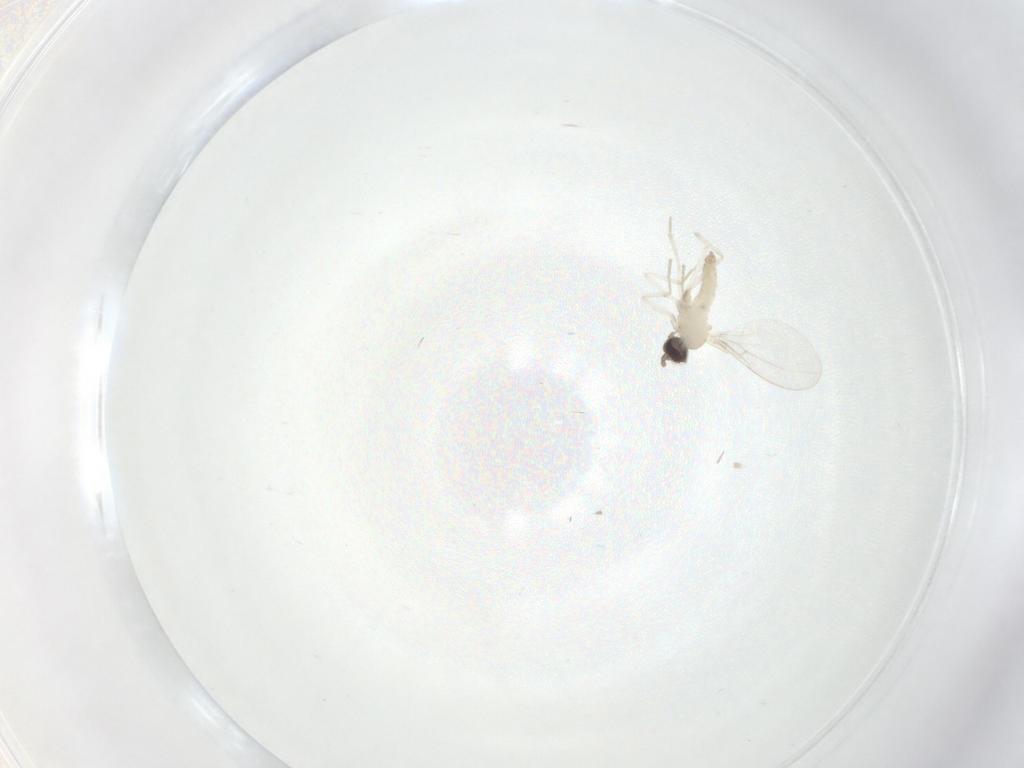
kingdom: Animalia
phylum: Arthropoda
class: Insecta
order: Diptera
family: Cecidomyiidae
